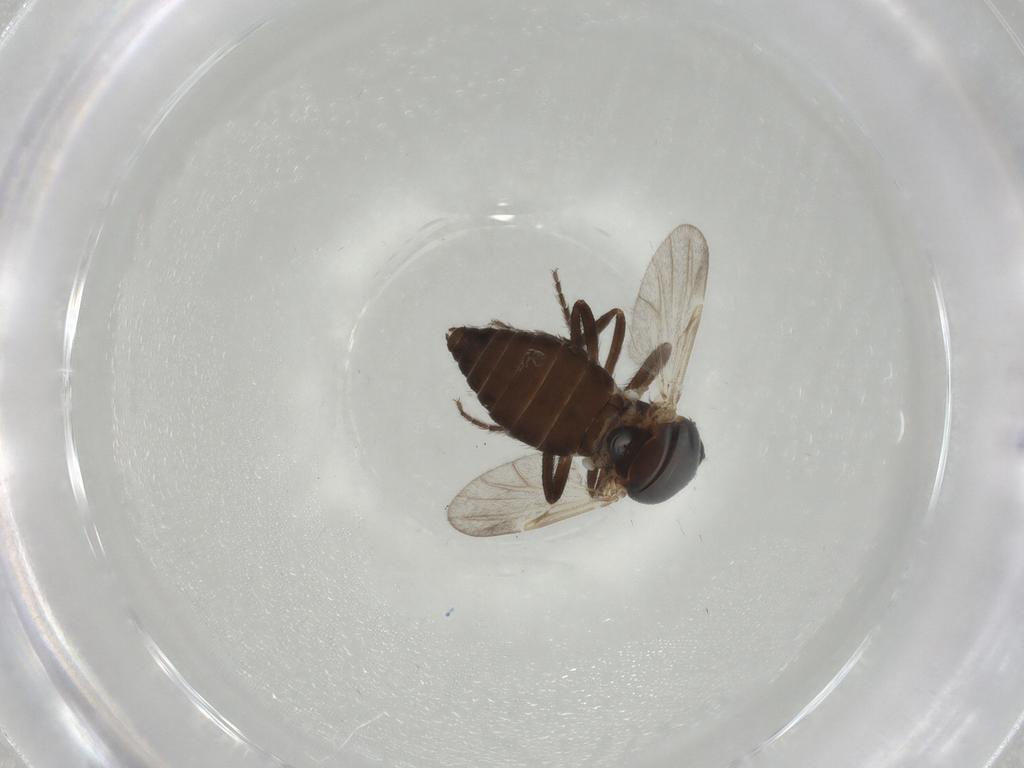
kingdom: Animalia
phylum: Arthropoda
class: Insecta
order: Diptera
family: Ceratopogonidae
